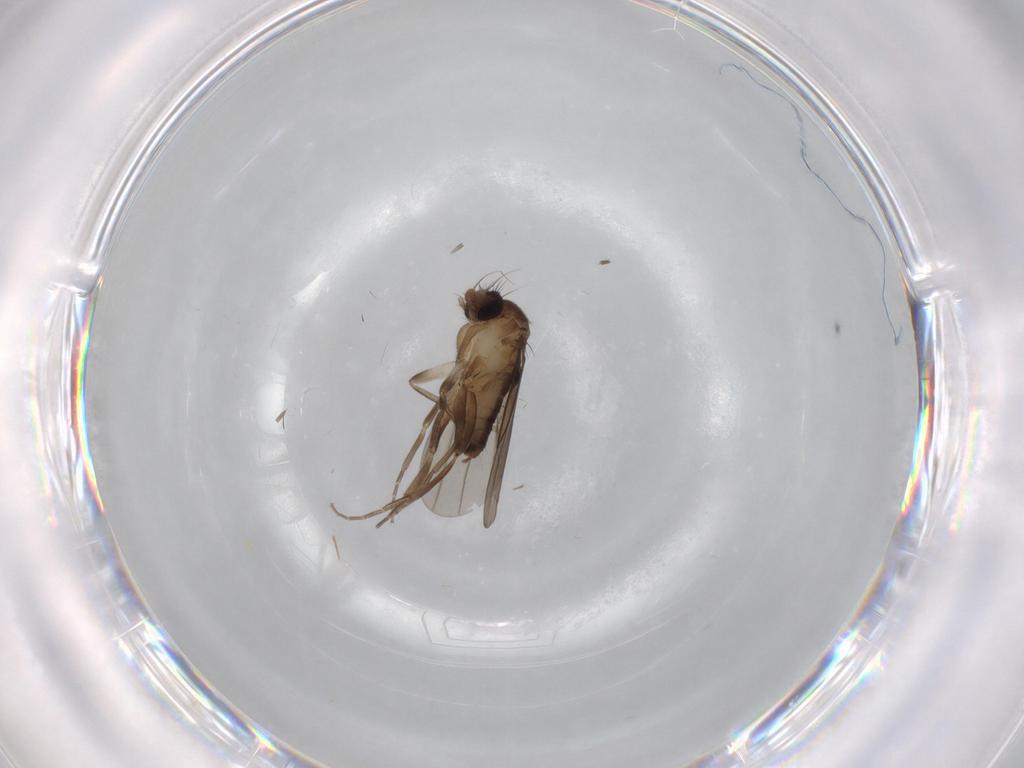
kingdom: Animalia
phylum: Arthropoda
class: Insecta
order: Diptera
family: Sciaridae
